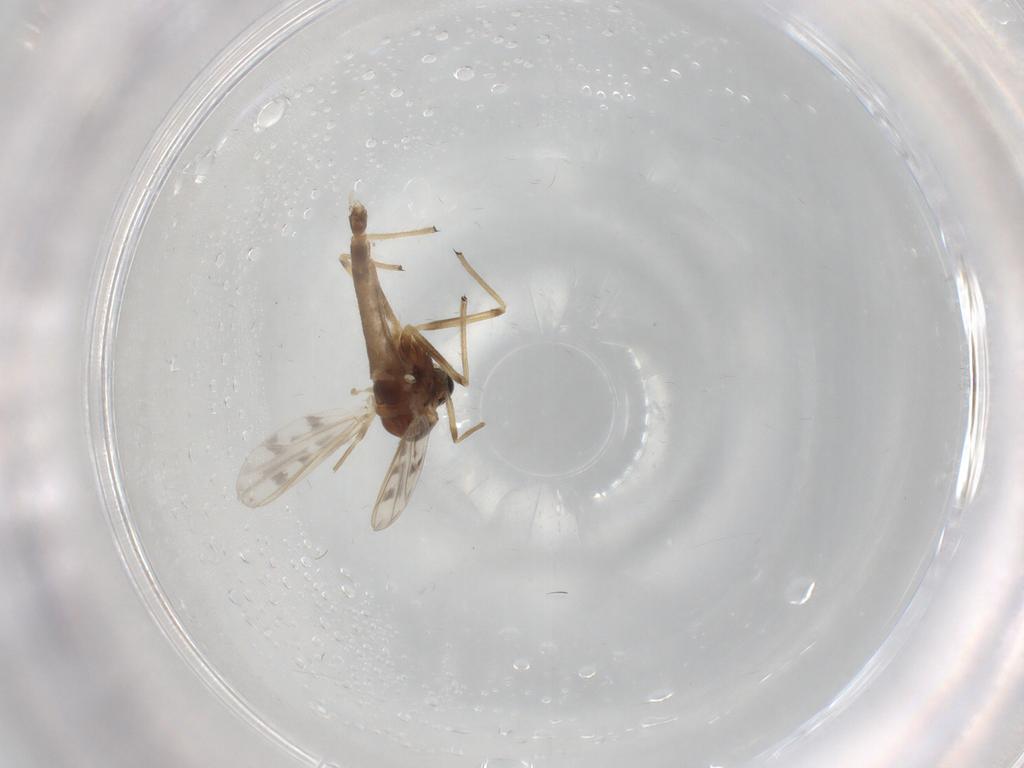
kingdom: Animalia
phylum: Arthropoda
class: Insecta
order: Diptera
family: Chironomidae
